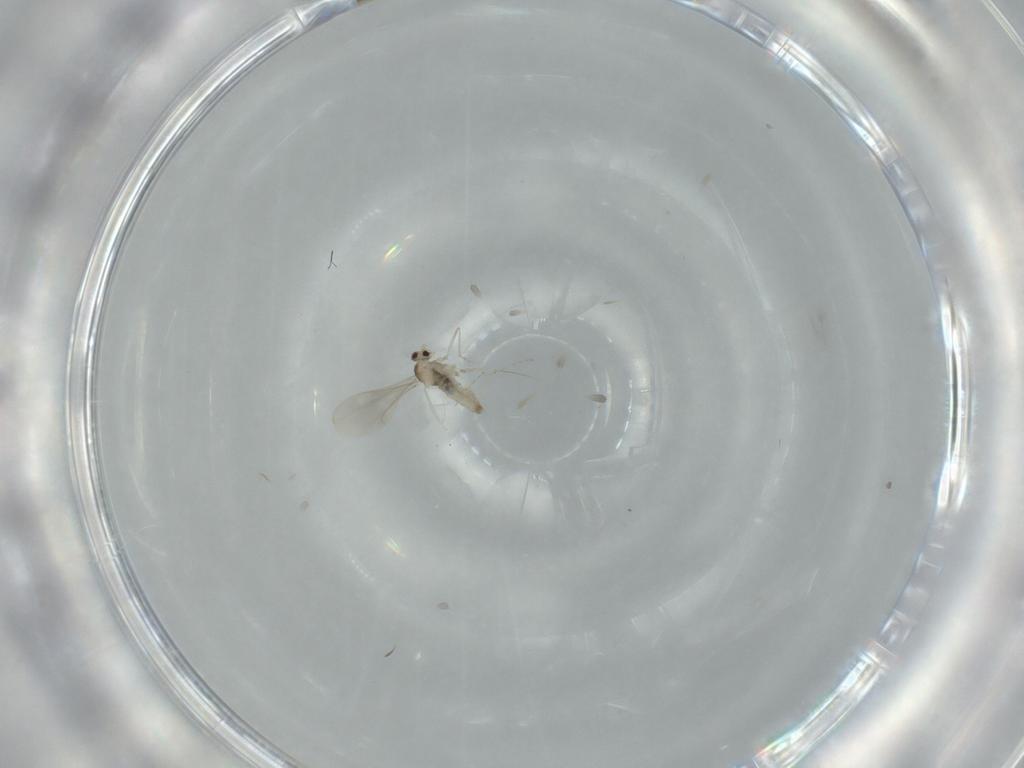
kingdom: Animalia
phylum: Arthropoda
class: Insecta
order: Diptera
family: Cecidomyiidae
